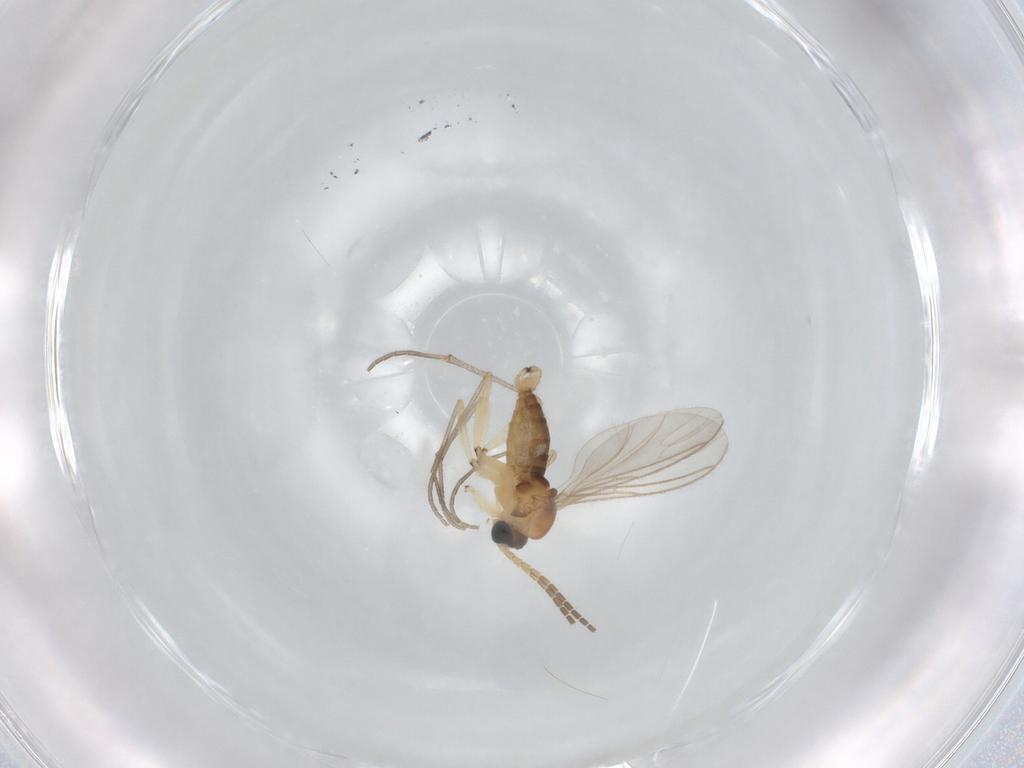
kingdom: Animalia
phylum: Arthropoda
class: Insecta
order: Diptera
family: Sciaridae
